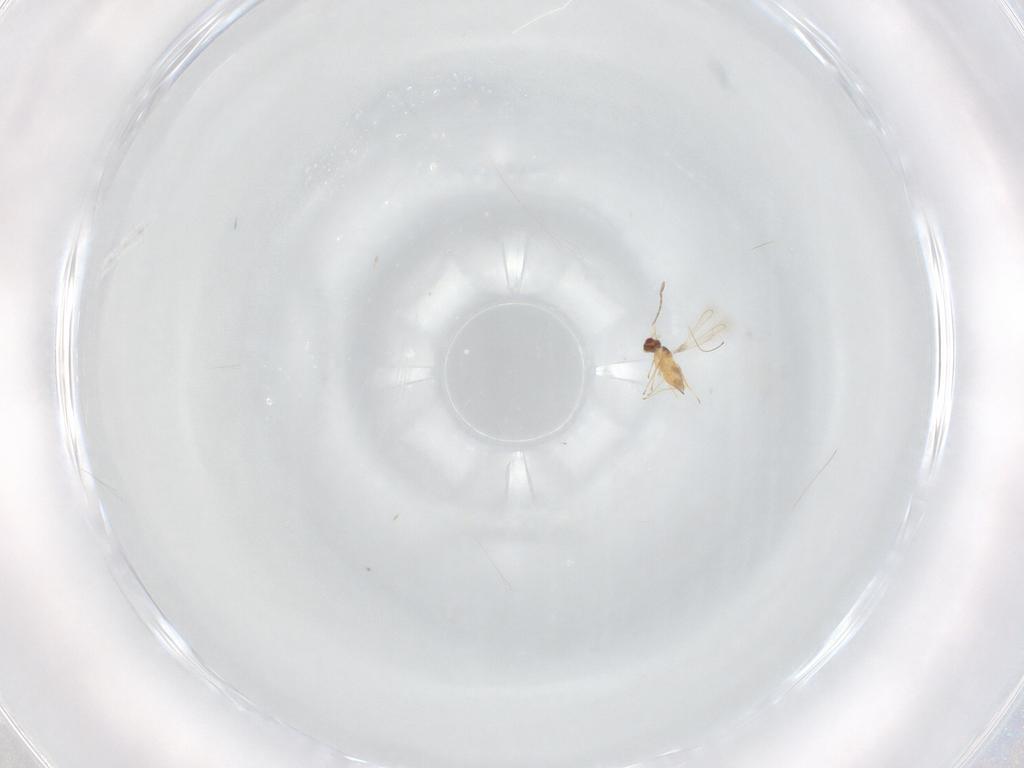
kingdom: Animalia
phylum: Arthropoda
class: Insecta
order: Hymenoptera
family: Mymaridae
